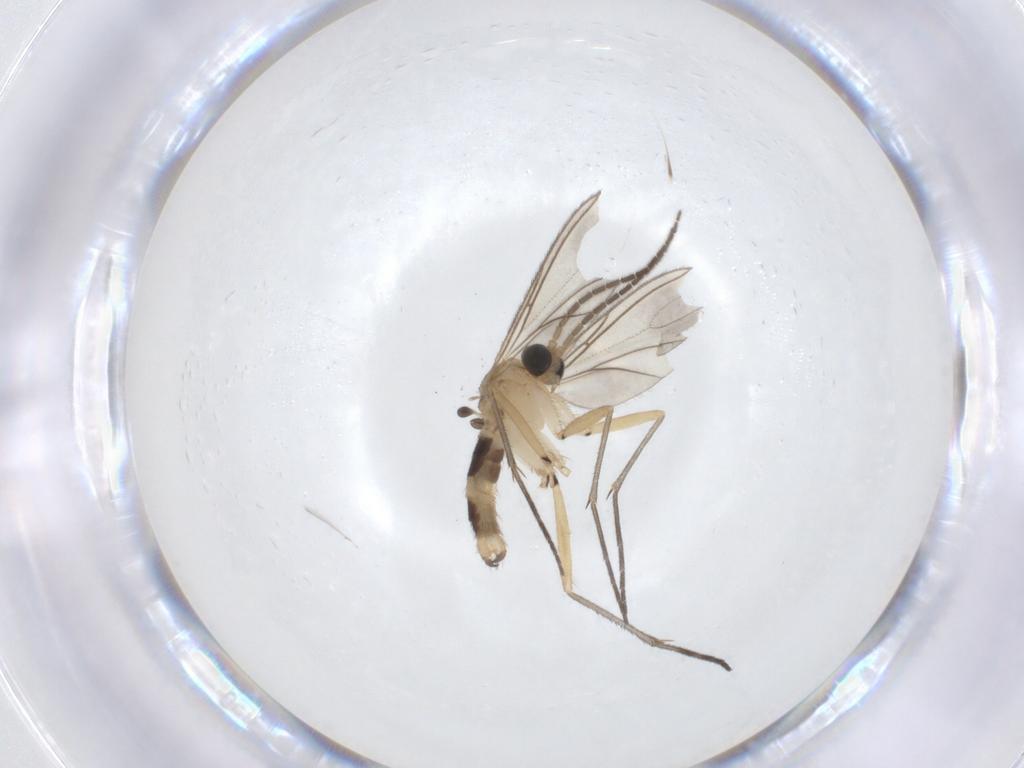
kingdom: Animalia
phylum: Arthropoda
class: Insecta
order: Diptera
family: Sciaridae
